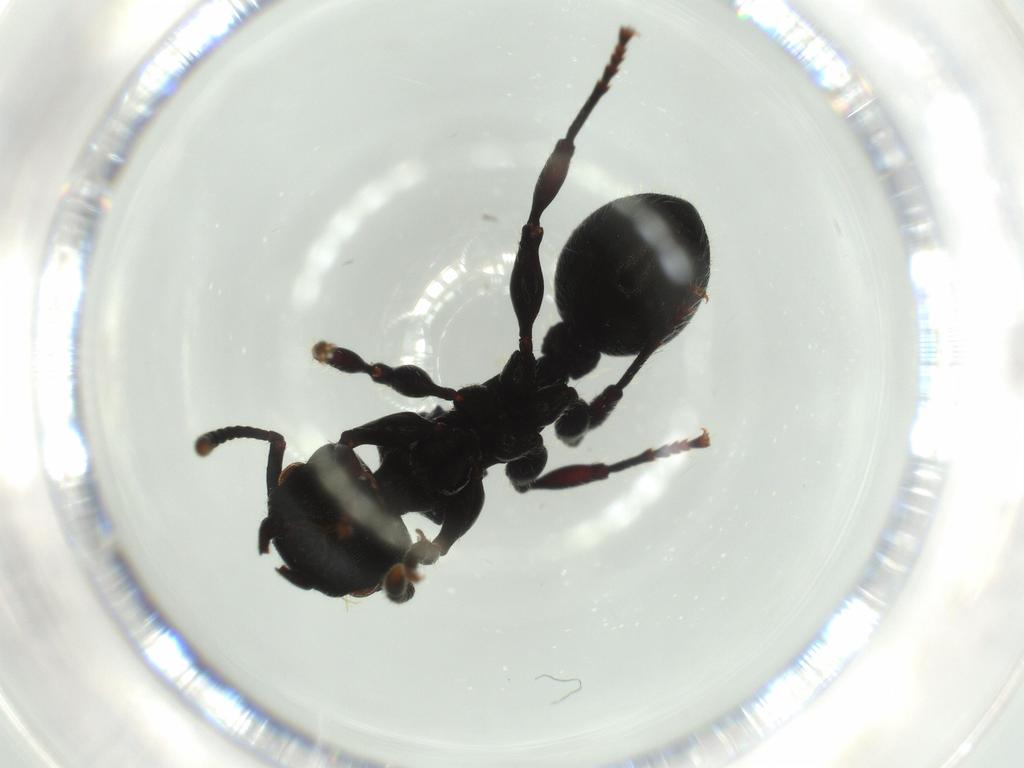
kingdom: Animalia
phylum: Arthropoda
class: Insecta
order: Hymenoptera
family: Formicidae
